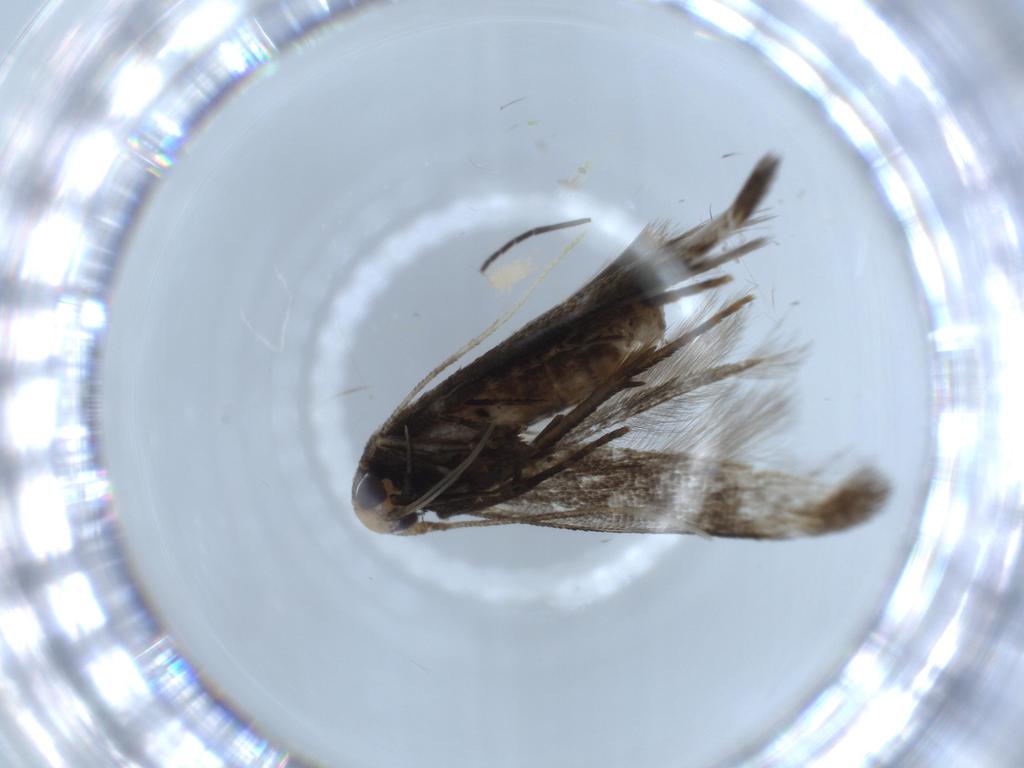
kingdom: Animalia
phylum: Arthropoda
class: Insecta
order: Lepidoptera
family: Autostichidae
